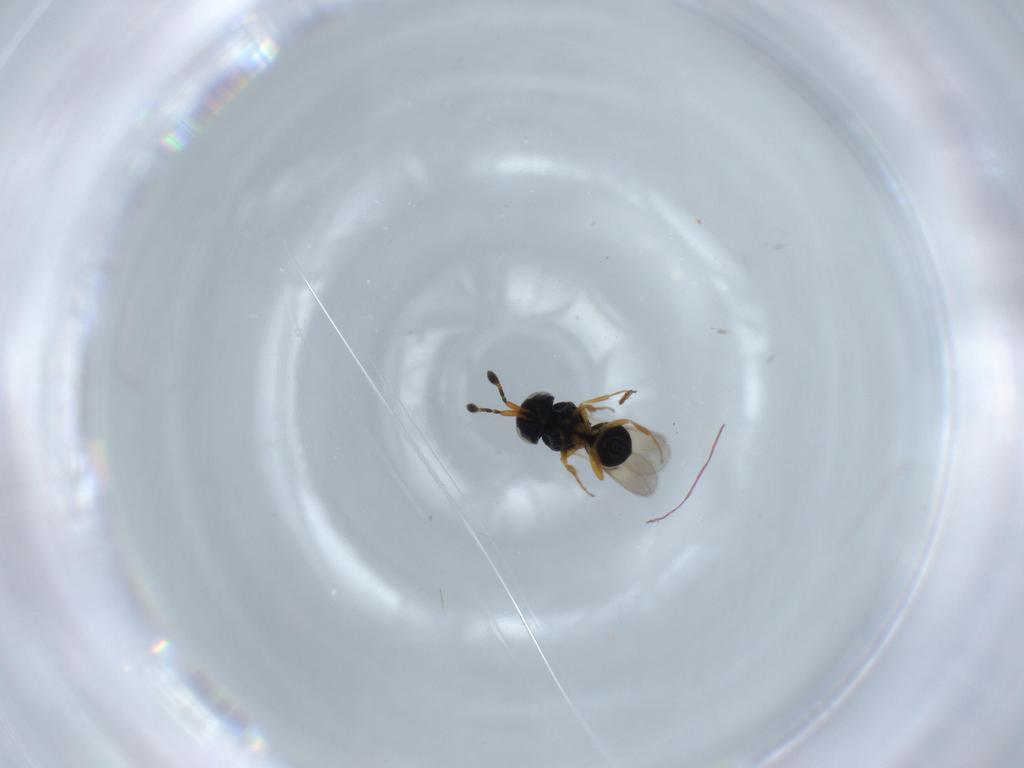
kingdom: Animalia
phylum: Arthropoda
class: Insecta
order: Hymenoptera
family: Scelionidae
